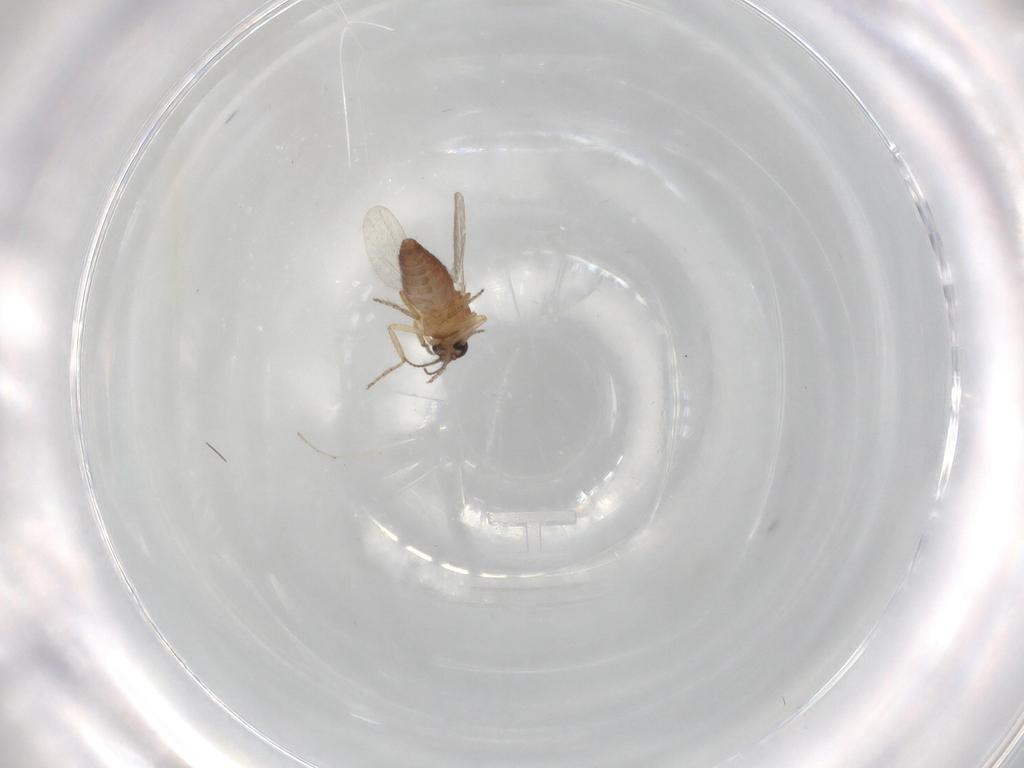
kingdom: Animalia
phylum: Arthropoda
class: Insecta
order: Diptera
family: Ceratopogonidae
